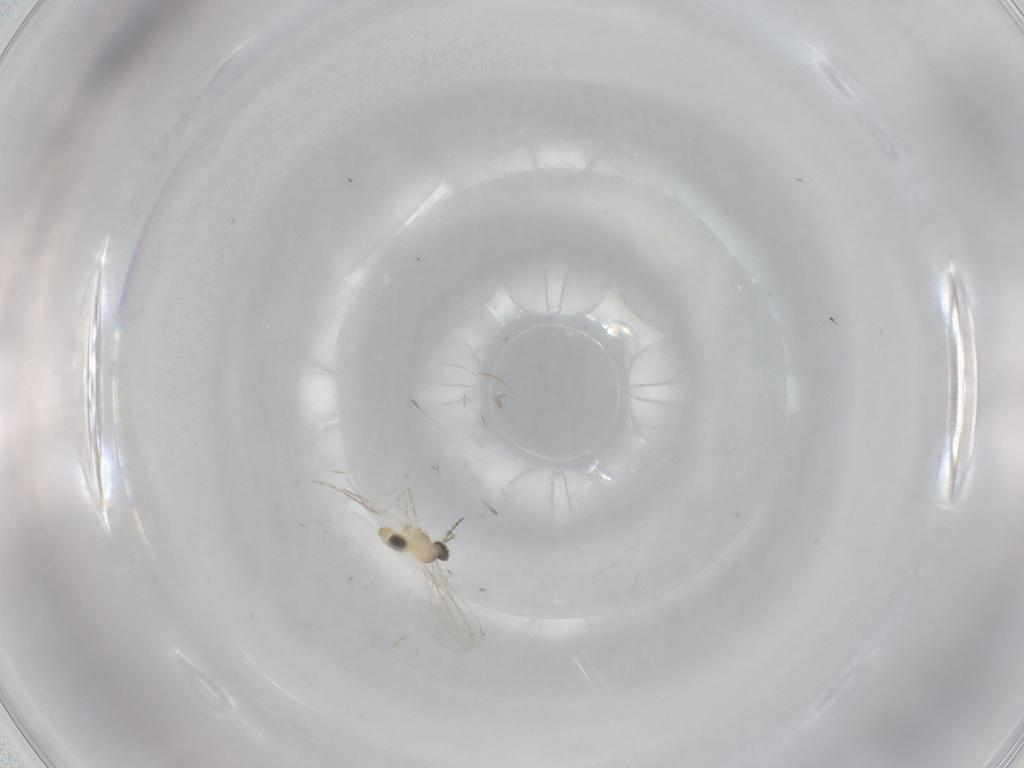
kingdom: Animalia
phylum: Arthropoda
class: Insecta
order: Diptera
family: Cecidomyiidae
